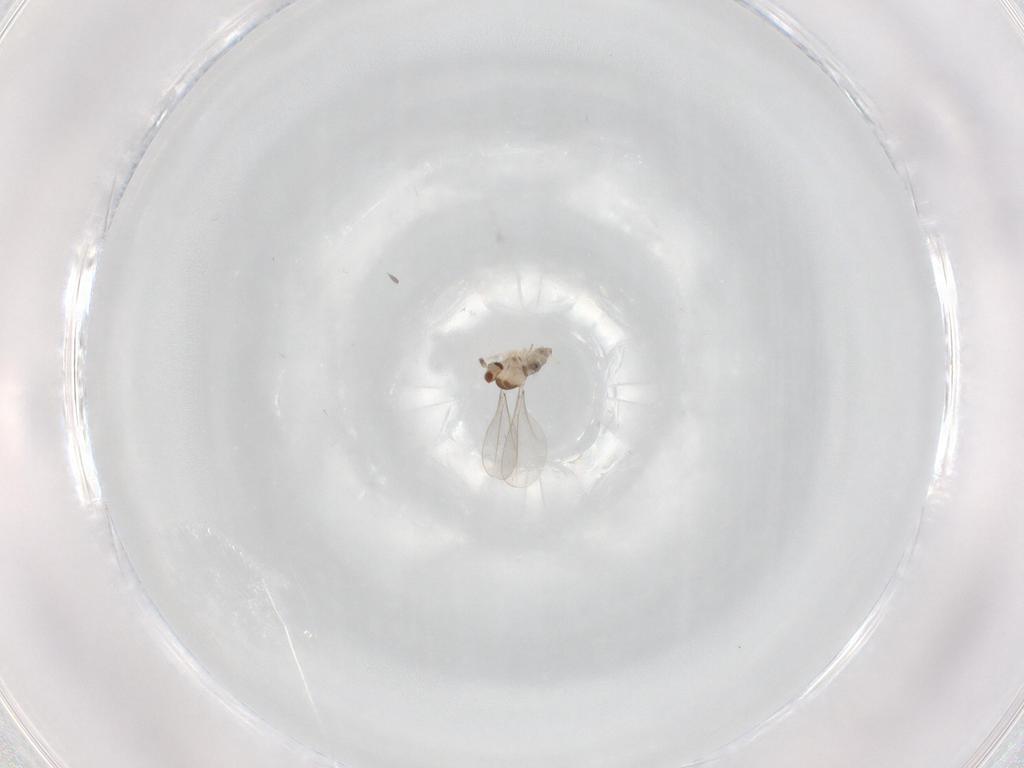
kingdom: Animalia
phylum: Arthropoda
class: Insecta
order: Diptera
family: Cecidomyiidae
